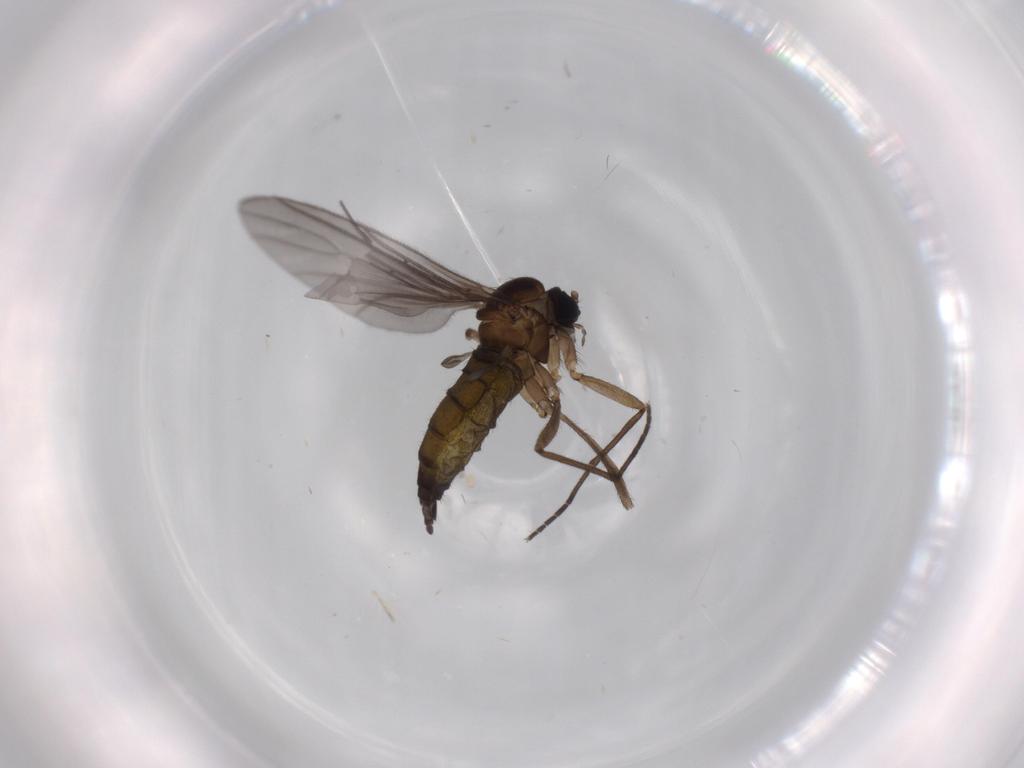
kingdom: Animalia
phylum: Arthropoda
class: Insecta
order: Diptera
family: Sciaridae
